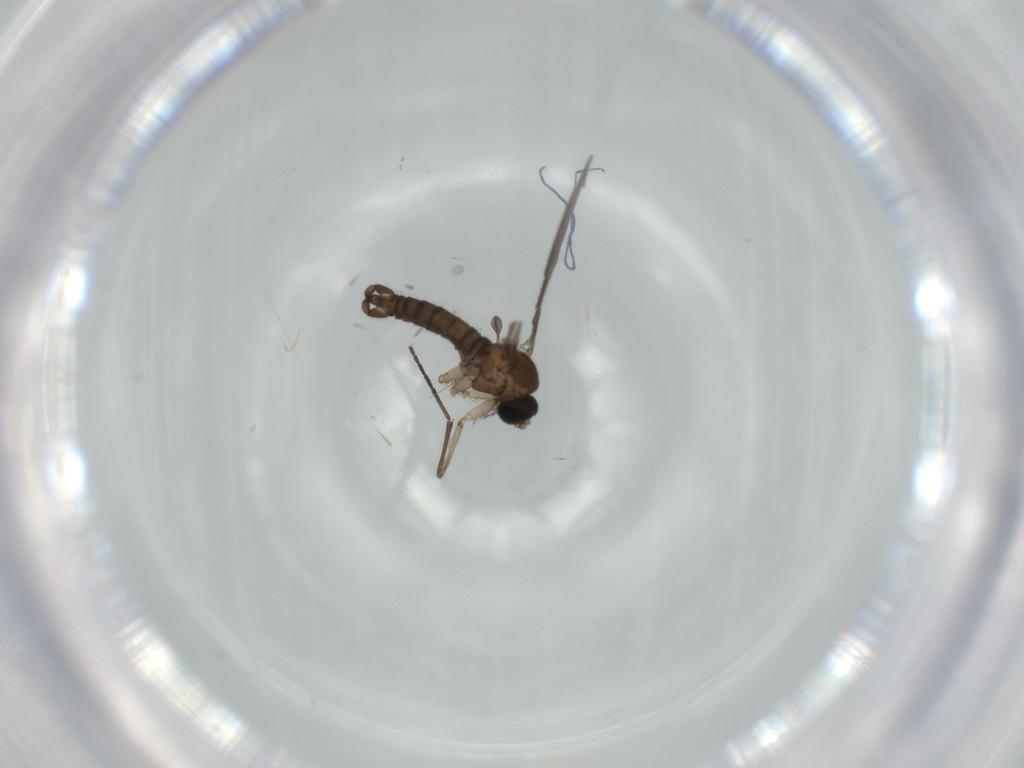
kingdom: Animalia
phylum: Arthropoda
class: Insecta
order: Diptera
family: Sciaridae
